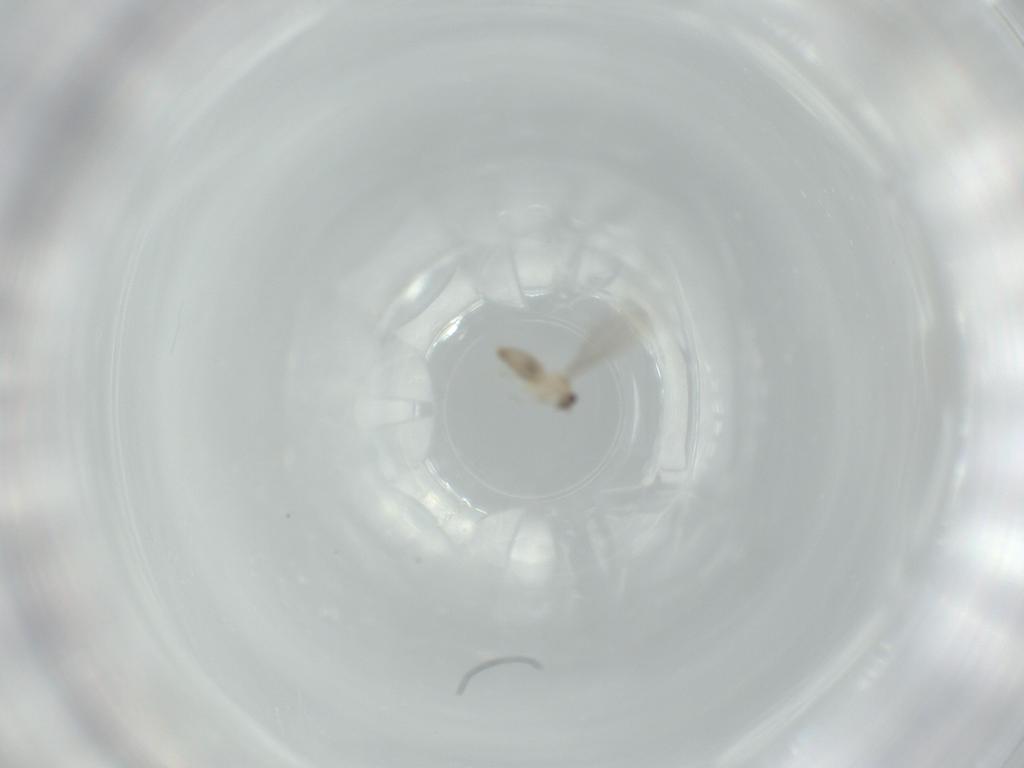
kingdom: Animalia
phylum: Arthropoda
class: Insecta
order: Diptera
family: Cecidomyiidae
